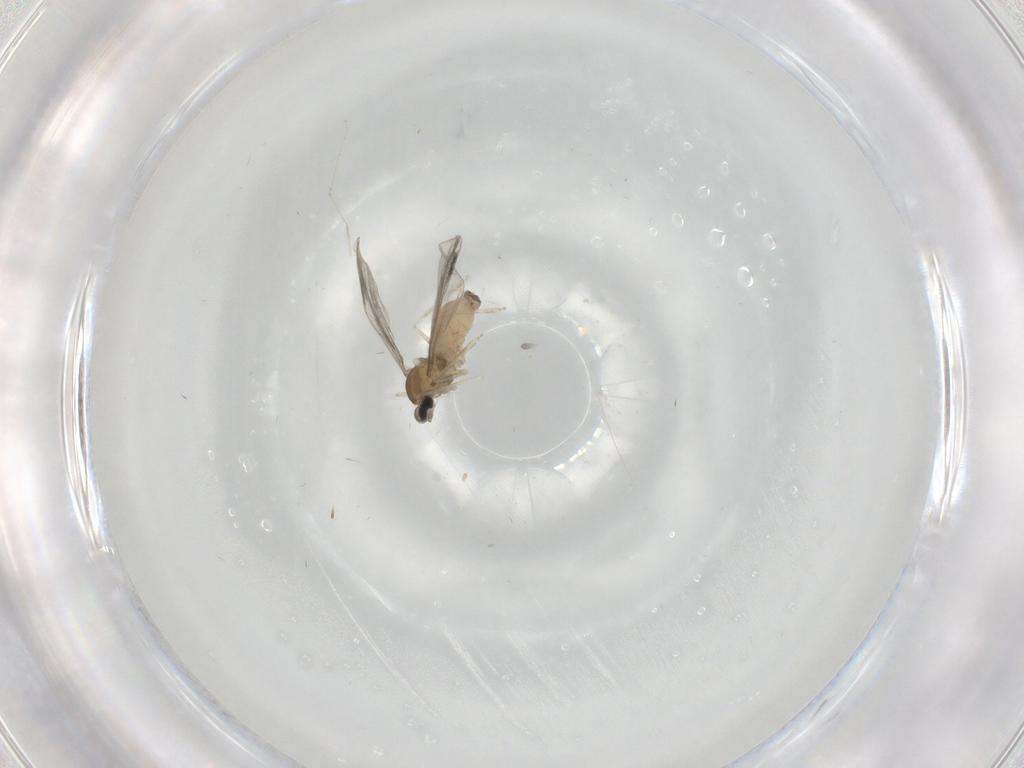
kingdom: Animalia
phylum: Arthropoda
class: Insecta
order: Diptera
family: Cecidomyiidae
